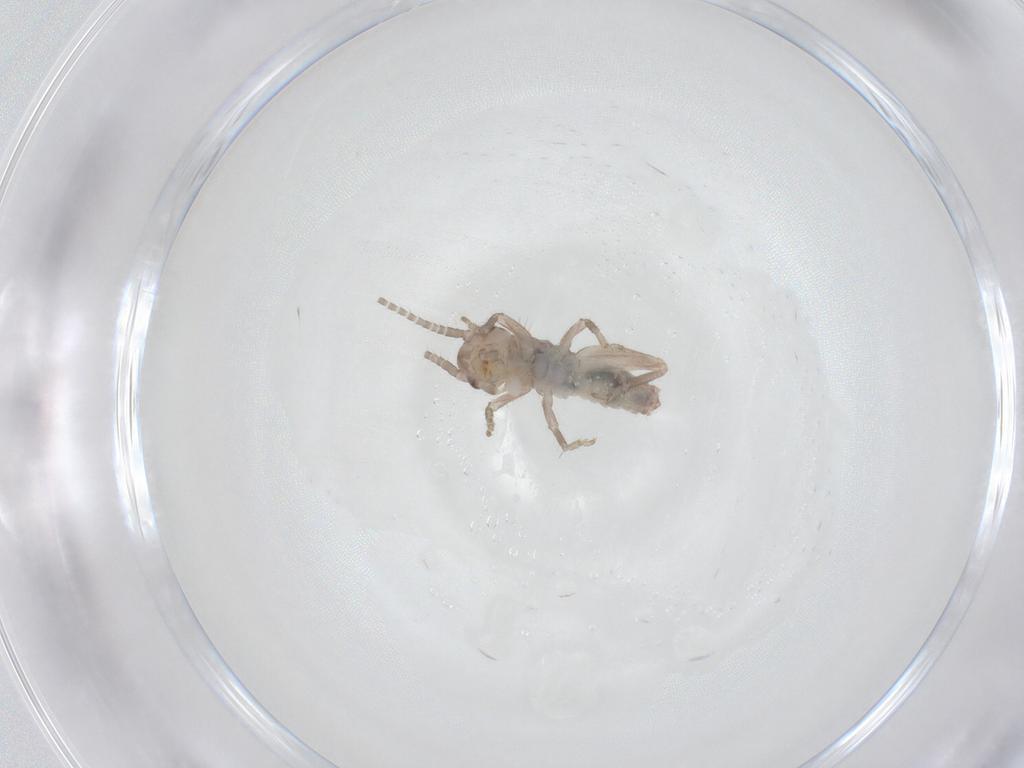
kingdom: Animalia
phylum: Arthropoda
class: Insecta
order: Orthoptera
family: Mogoplistidae
